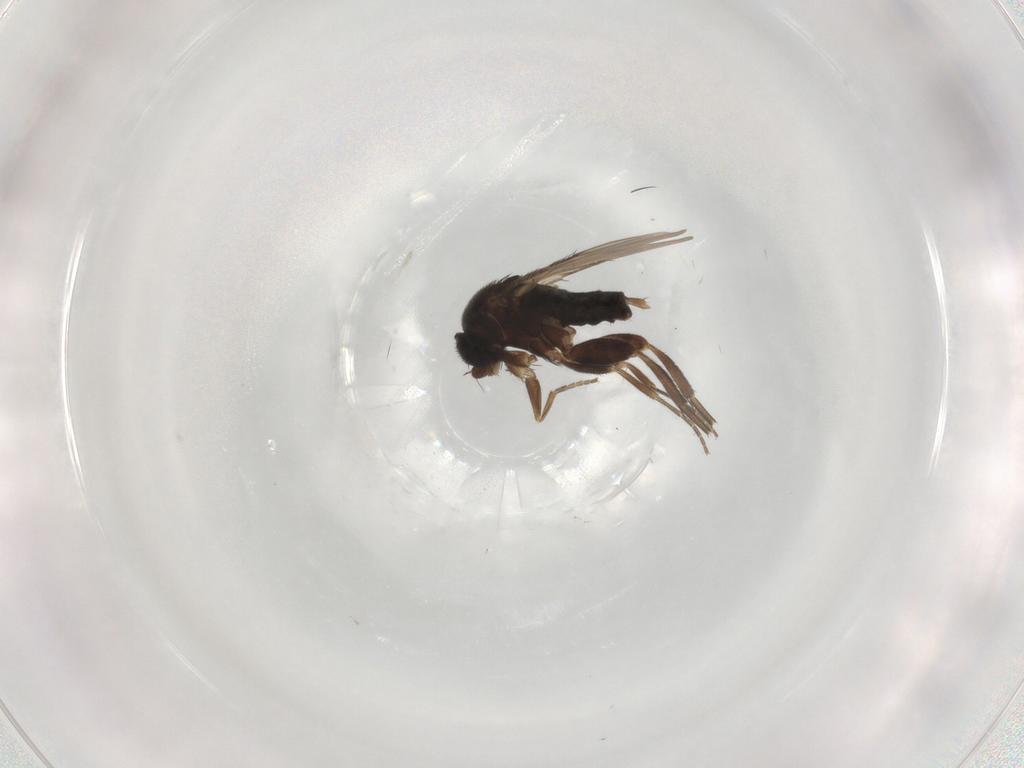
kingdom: Animalia
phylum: Arthropoda
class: Insecta
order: Diptera
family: Phoridae
